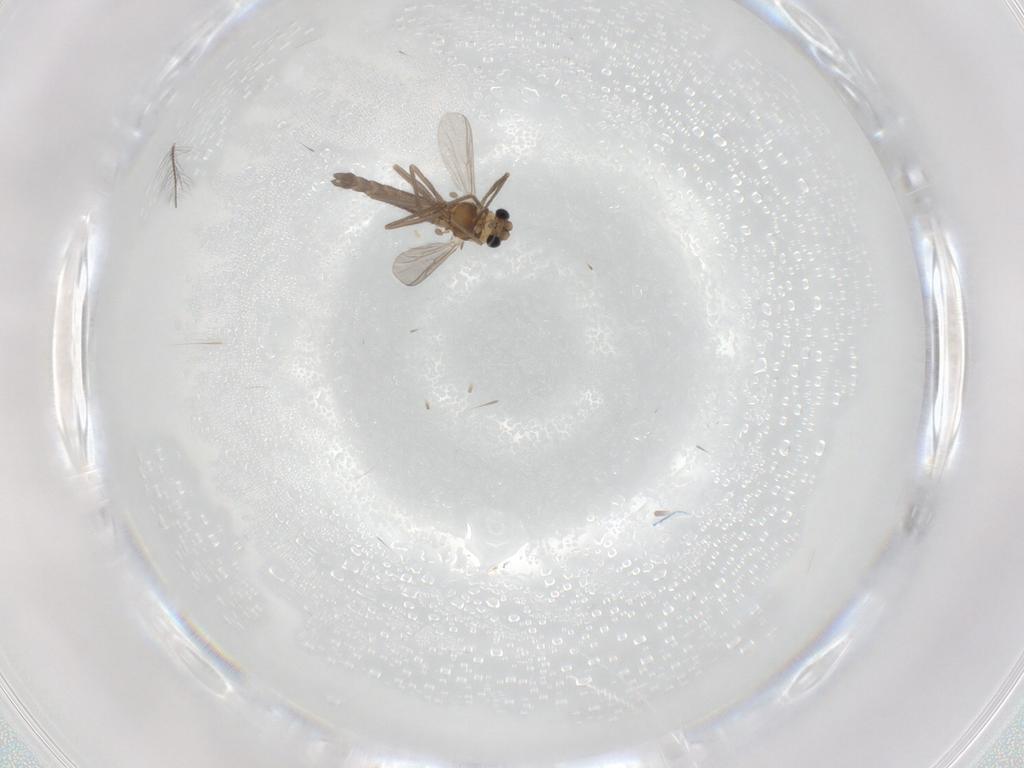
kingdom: Animalia
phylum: Arthropoda
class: Insecta
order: Diptera
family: Chironomidae
